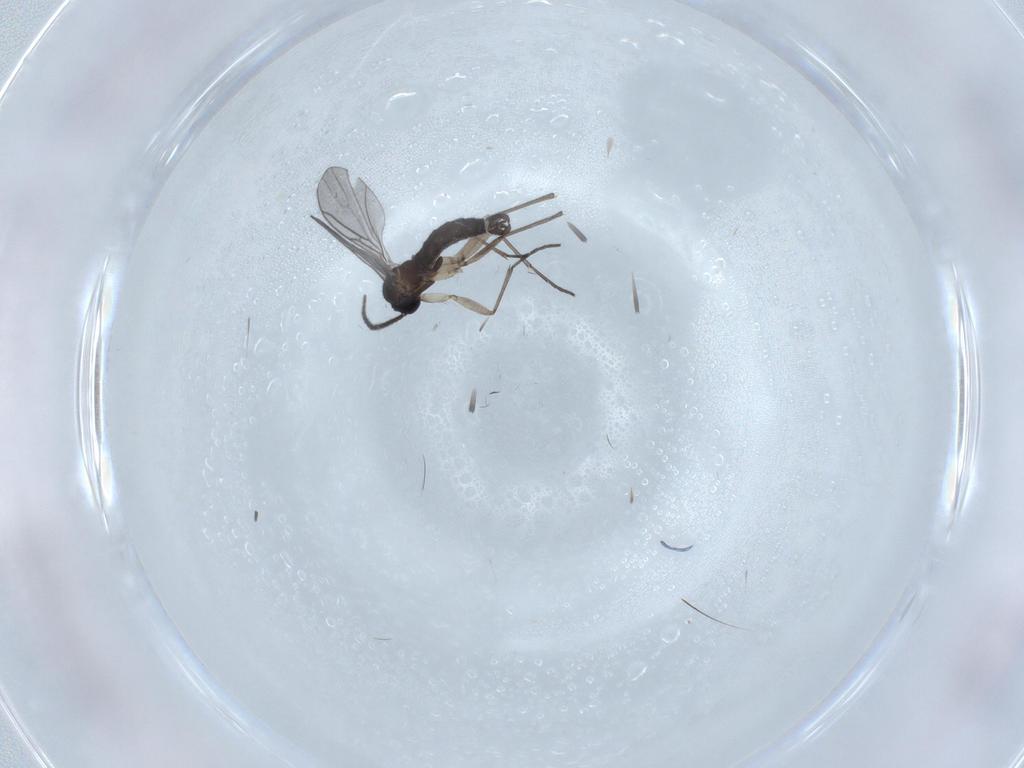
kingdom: Animalia
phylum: Arthropoda
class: Insecta
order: Diptera
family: Sciaridae
